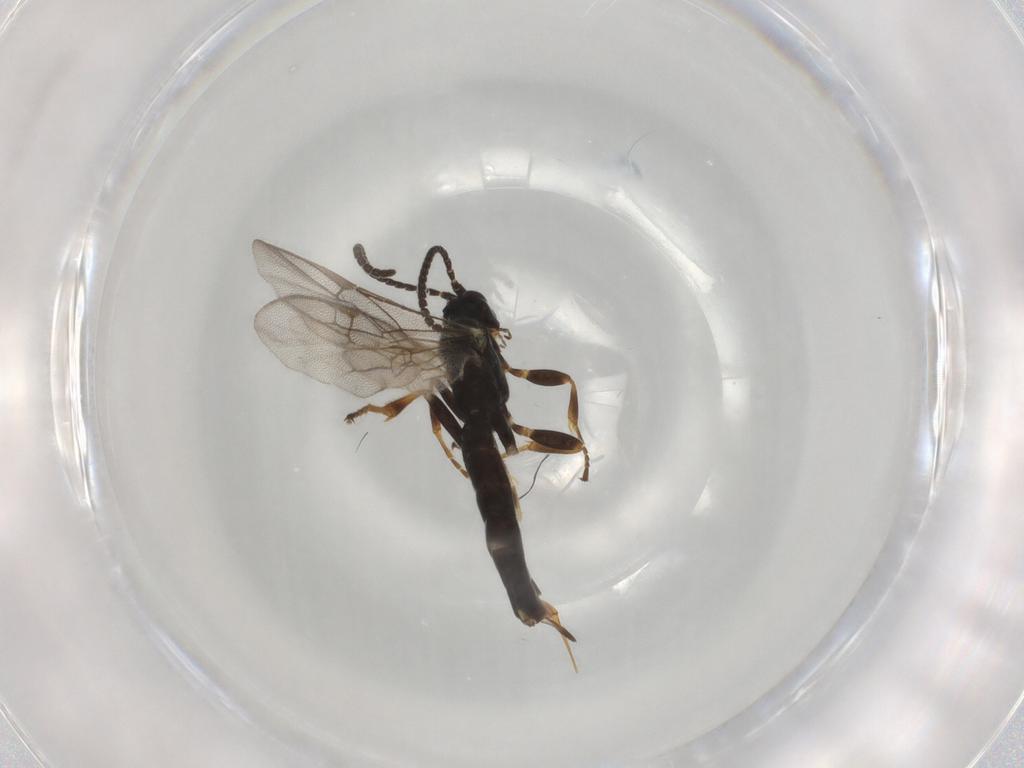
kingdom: Animalia
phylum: Arthropoda
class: Insecta
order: Hymenoptera
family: Ichneumonidae
